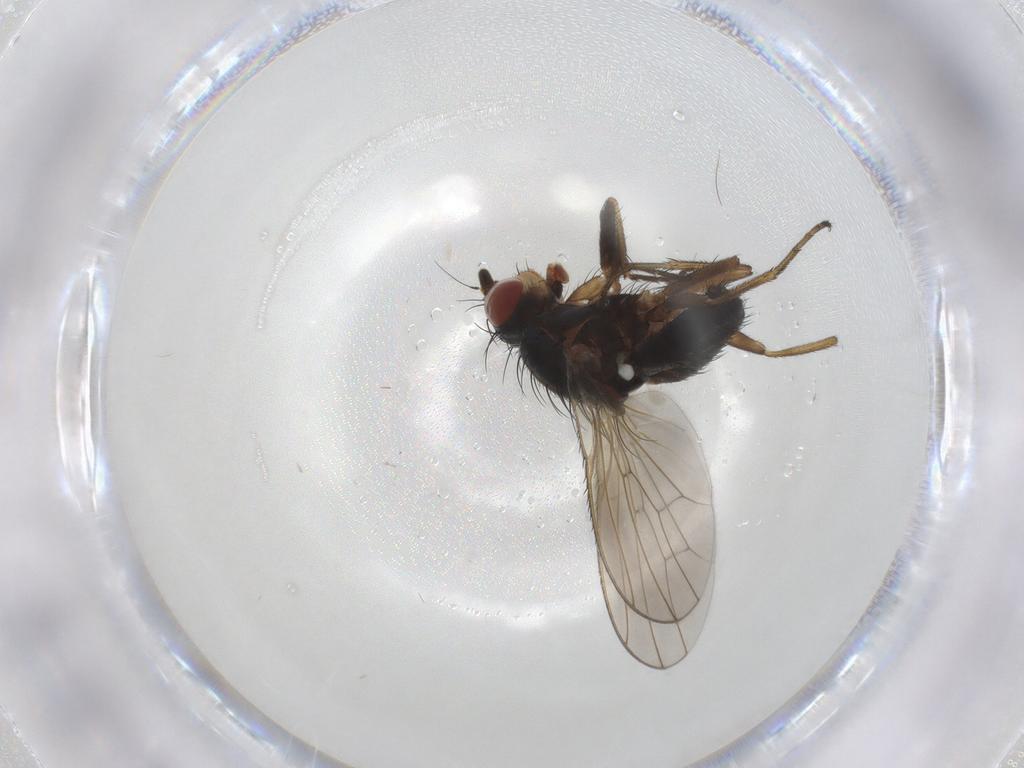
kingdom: Animalia
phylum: Arthropoda
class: Insecta
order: Diptera
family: Phoridae
